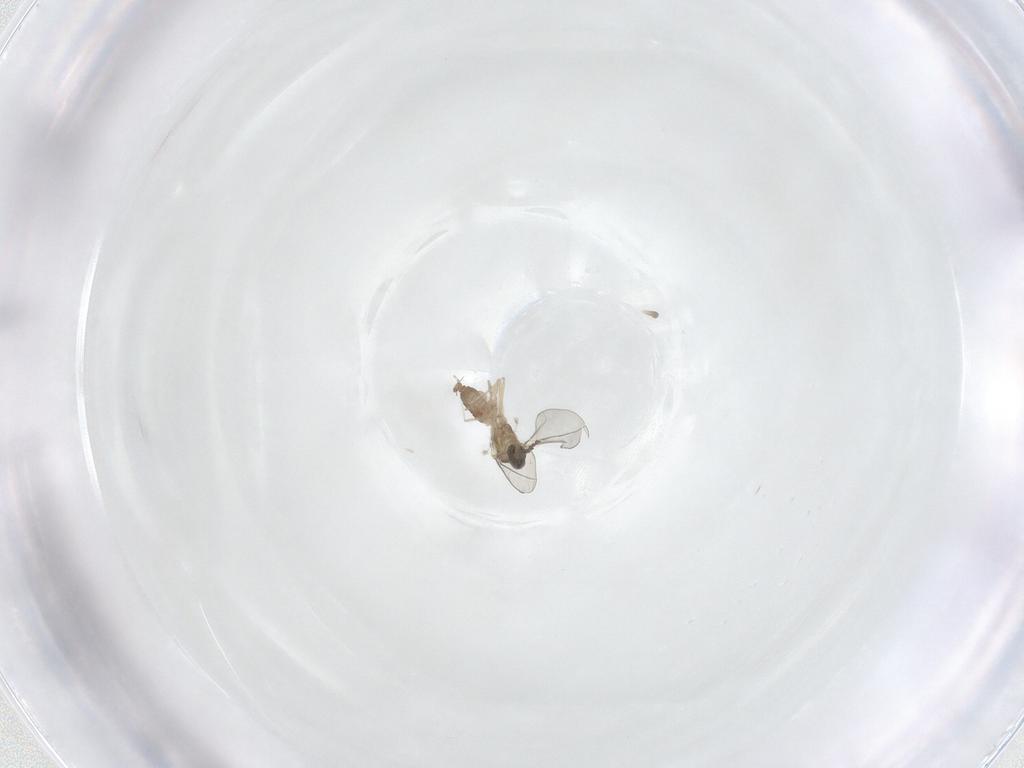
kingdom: Animalia
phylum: Arthropoda
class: Insecta
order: Diptera
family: Cecidomyiidae
